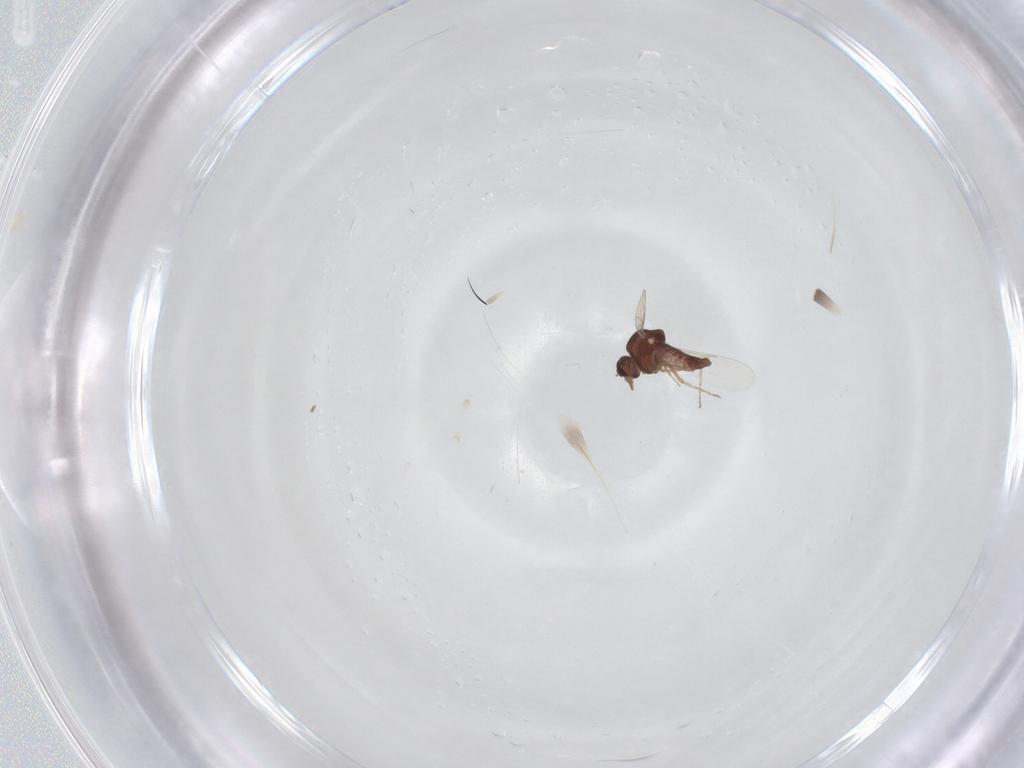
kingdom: Animalia
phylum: Arthropoda
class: Insecta
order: Diptera
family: Ceratopogonidae
